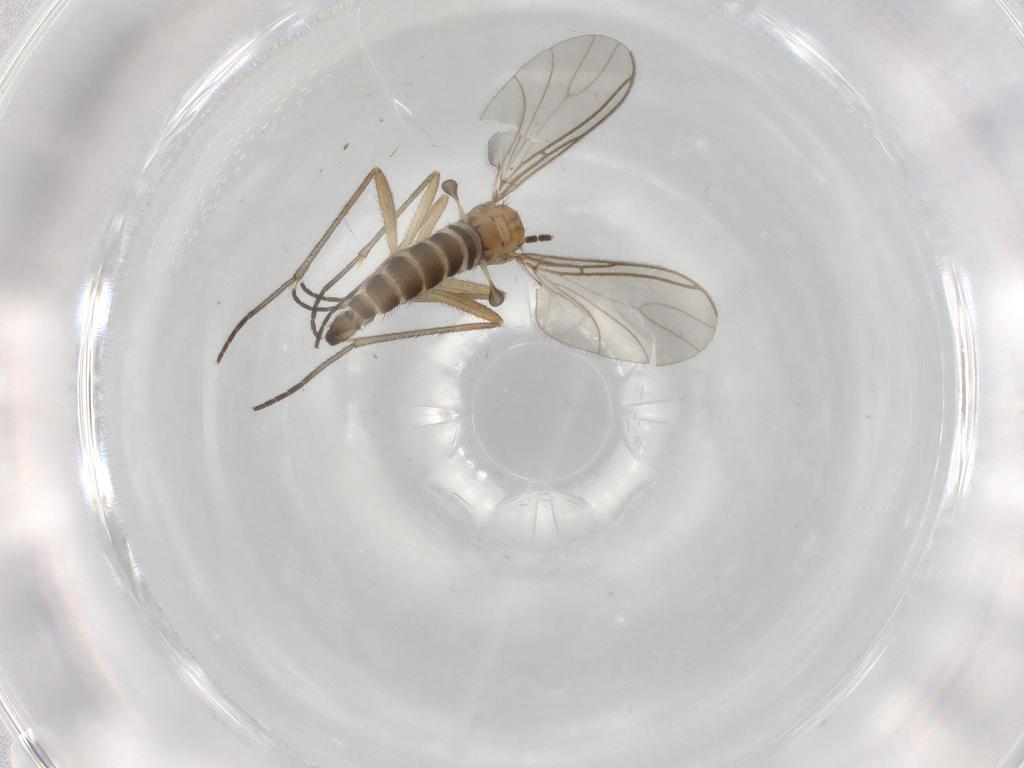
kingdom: Animalia
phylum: Arthropoda
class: Insecta
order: Diptera
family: Sciaridae
